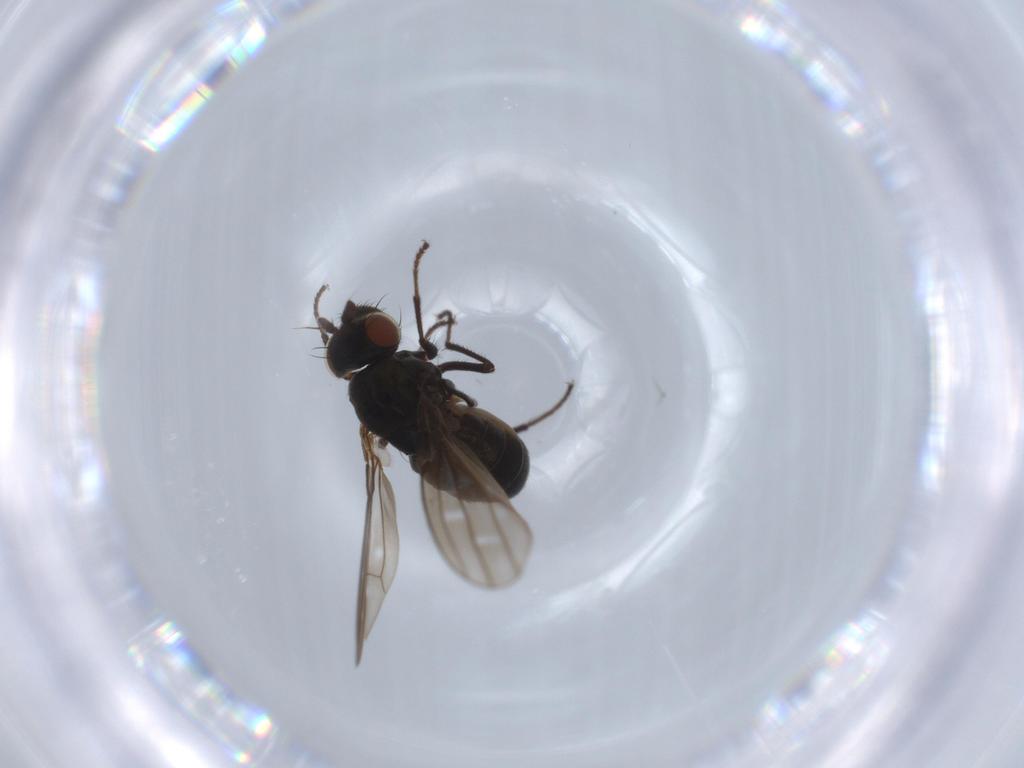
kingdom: Animalia
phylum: Arthropoda
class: Insecta
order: Diptera
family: Ephydridae
